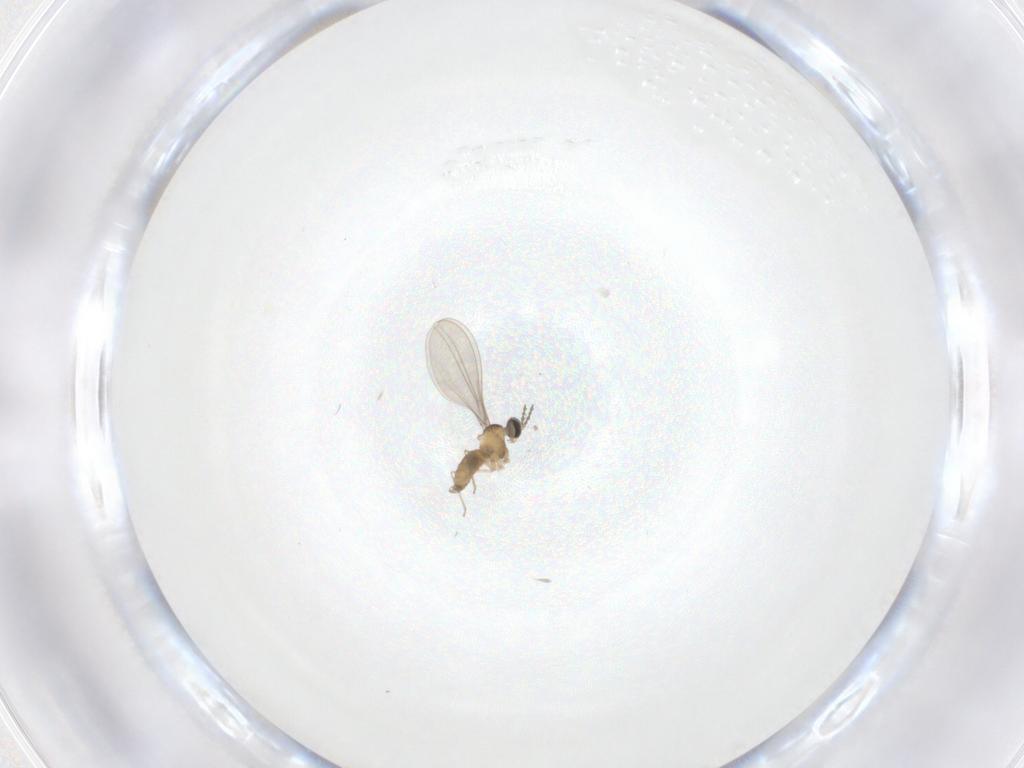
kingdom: Animalia
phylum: Arthropoda
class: Insecta
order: Diptera
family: Cecidomyiidae
